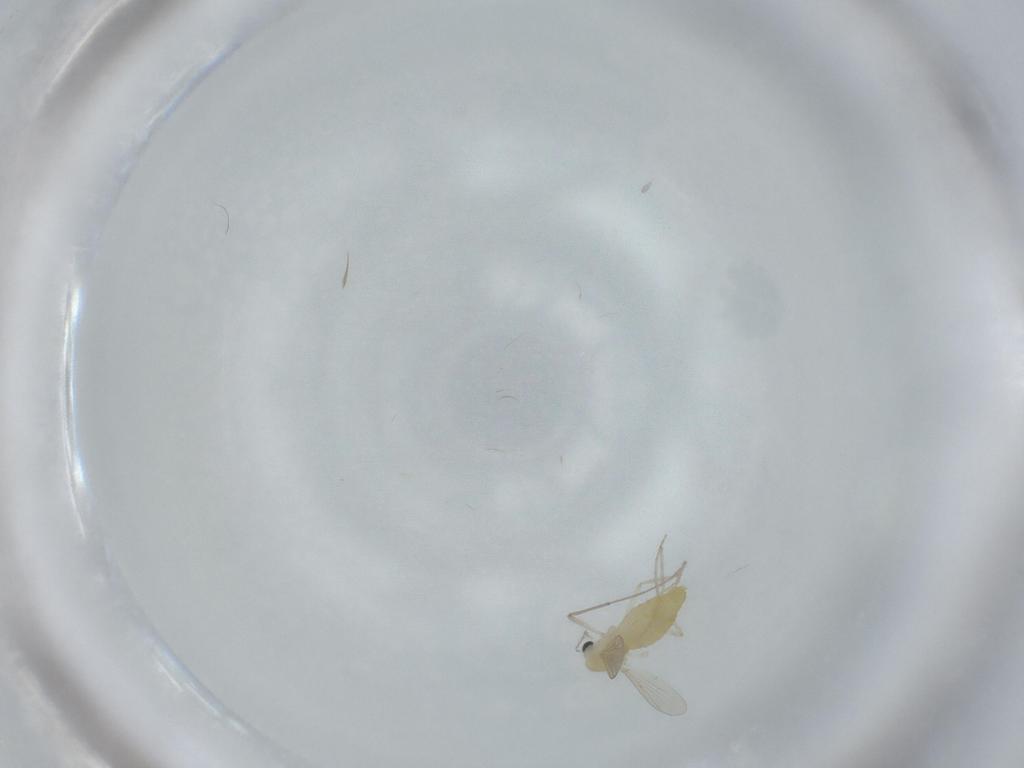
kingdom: Animalia
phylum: Arthropoda
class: Insecta
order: Diptera
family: Chironomidae
